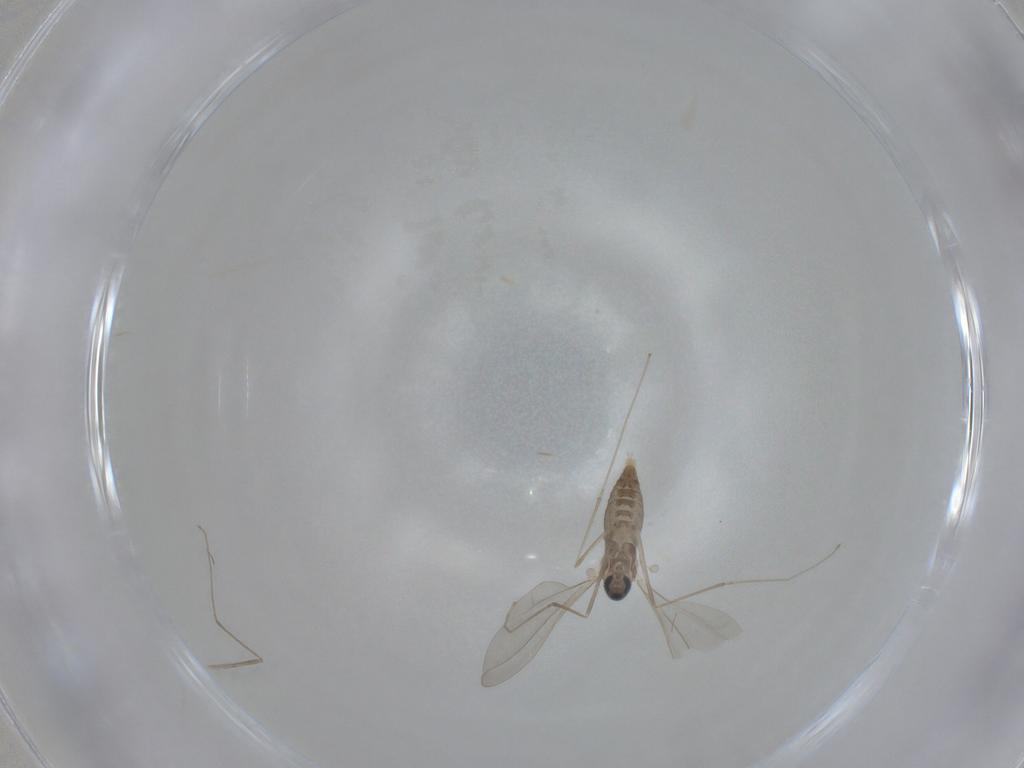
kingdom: Animalia
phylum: Arthropoda
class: Insecta
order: Diptera
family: Cecidomyiidae
